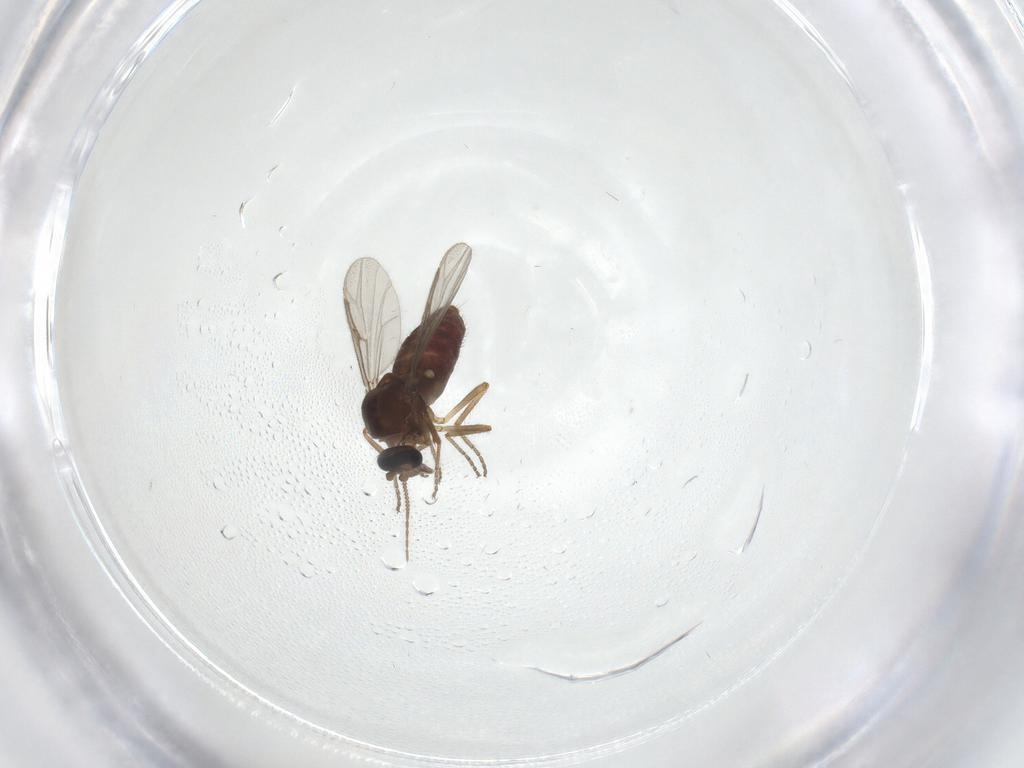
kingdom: Animalia
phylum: Arthropoda
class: Insecta
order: Diptera
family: Ceratopogonidae
